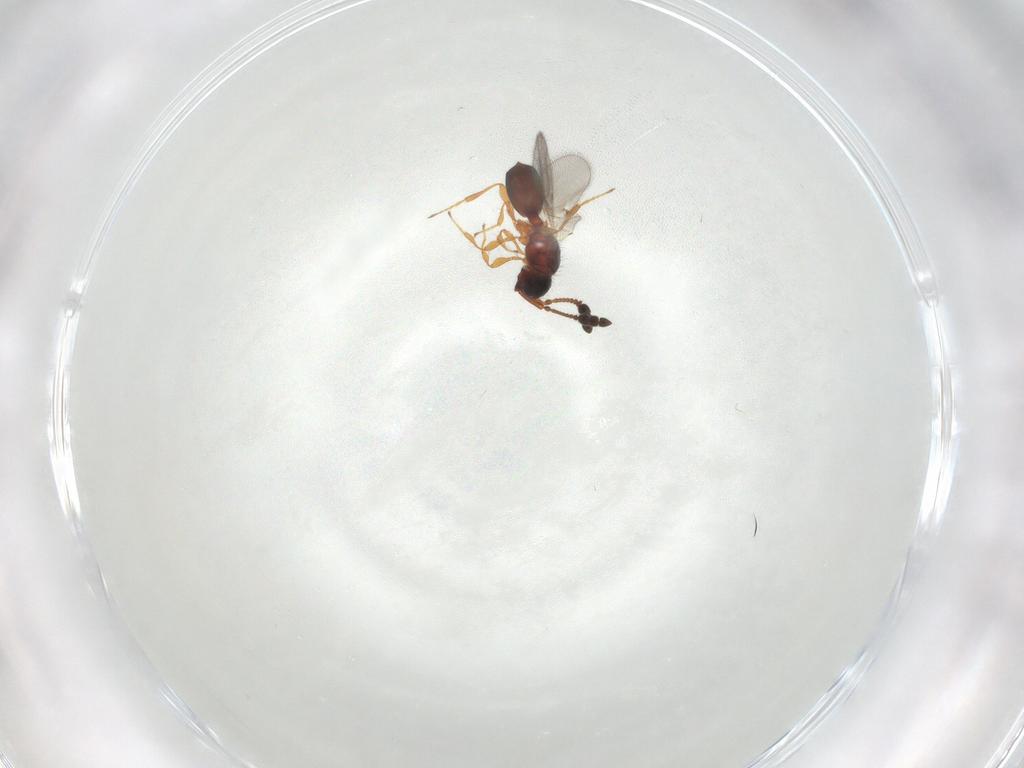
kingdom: Animalia
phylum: Arthropoda
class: Insecta
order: Hymenoptera
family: Diapriidae
